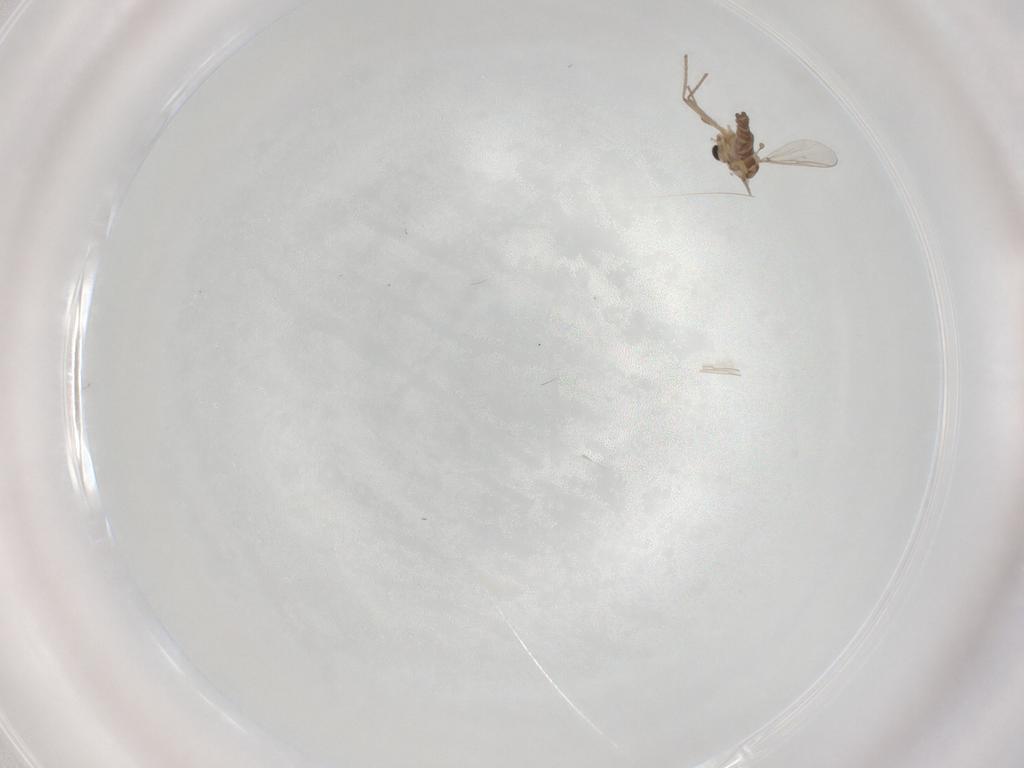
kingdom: Animalia
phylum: Arthropoda
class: Insecta
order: Diptera
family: Chironomidae
